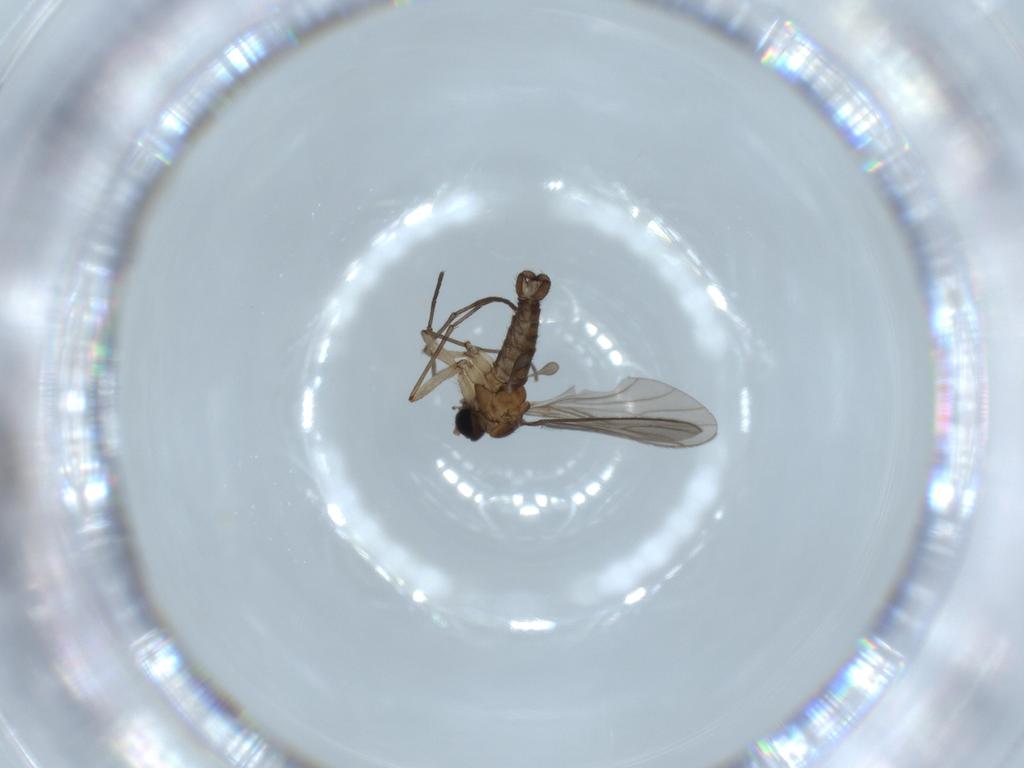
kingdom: Animalia
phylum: Arthropoda
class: Insecta
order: Diptera
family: Sciaridae
